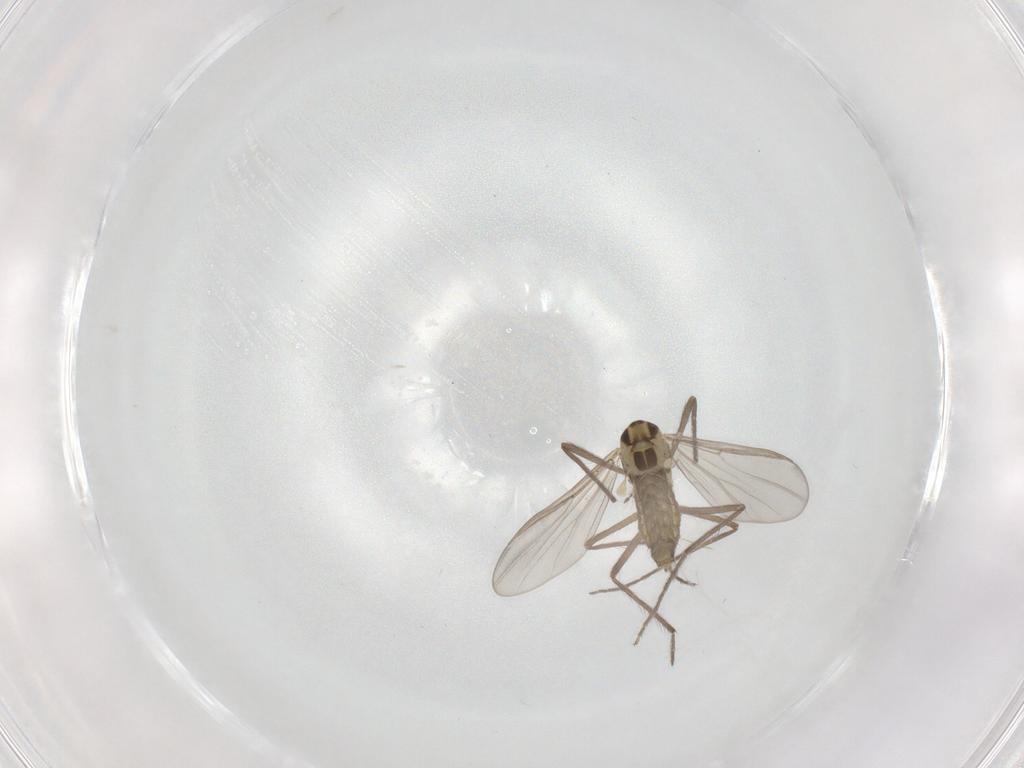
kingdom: Animalia
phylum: Arthropoda
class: Insecta
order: Diptera
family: Chironomidae
